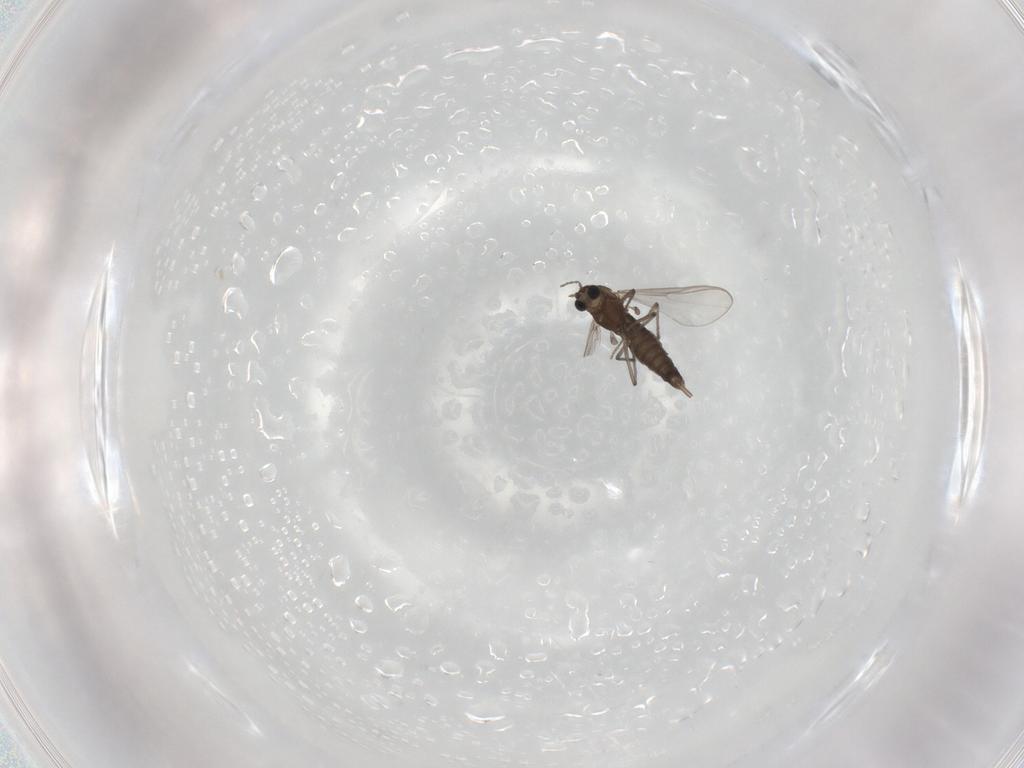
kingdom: Animalia
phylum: Arthropoda
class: Insecta
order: Diptera
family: Chironomidae
